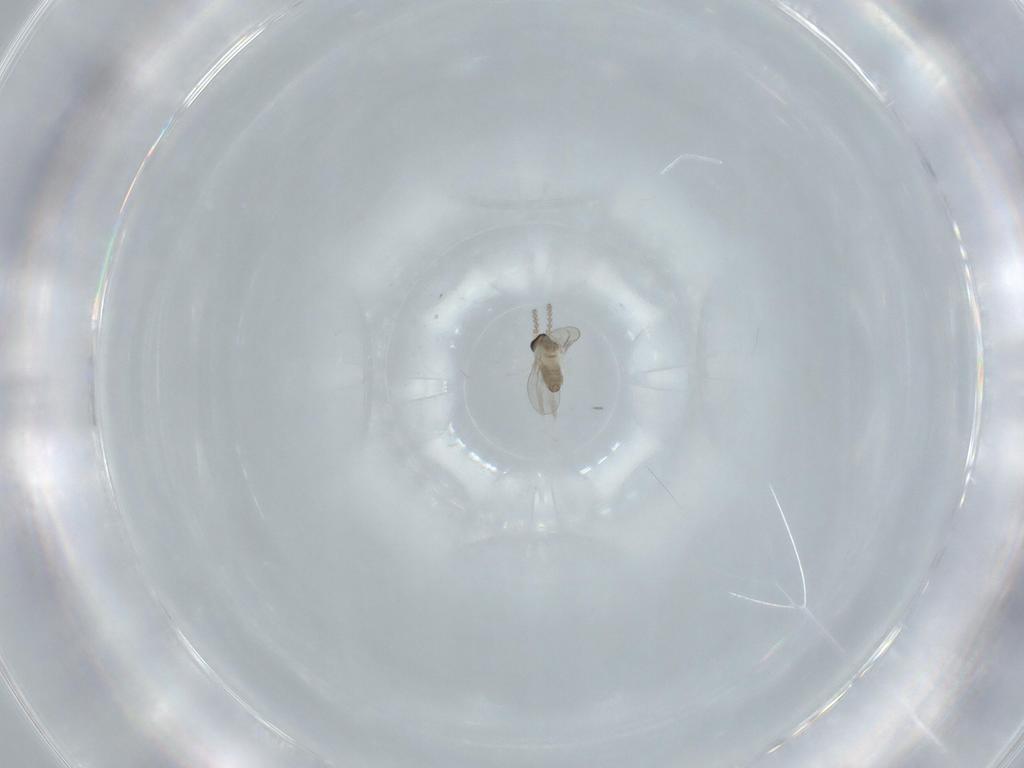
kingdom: Animalia
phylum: Arthropoda
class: Insecta
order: Diptera
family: Cecidomyiidae
